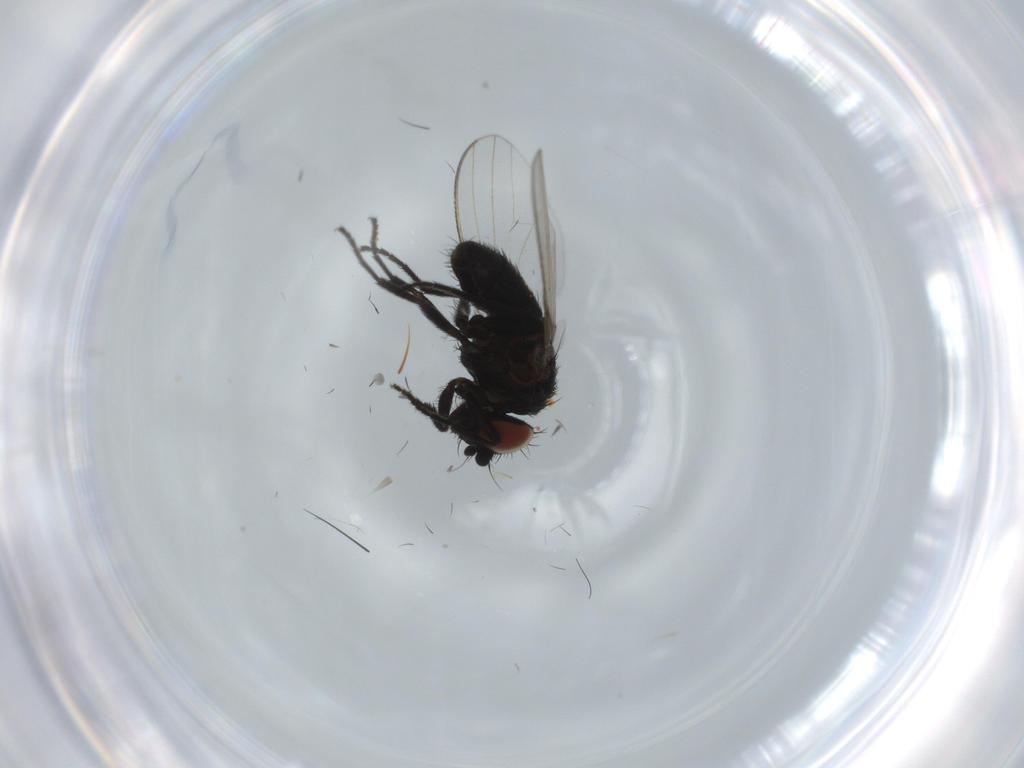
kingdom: Animalia
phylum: Arthropoda
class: Insecta
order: Diptera
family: Milichiidae
